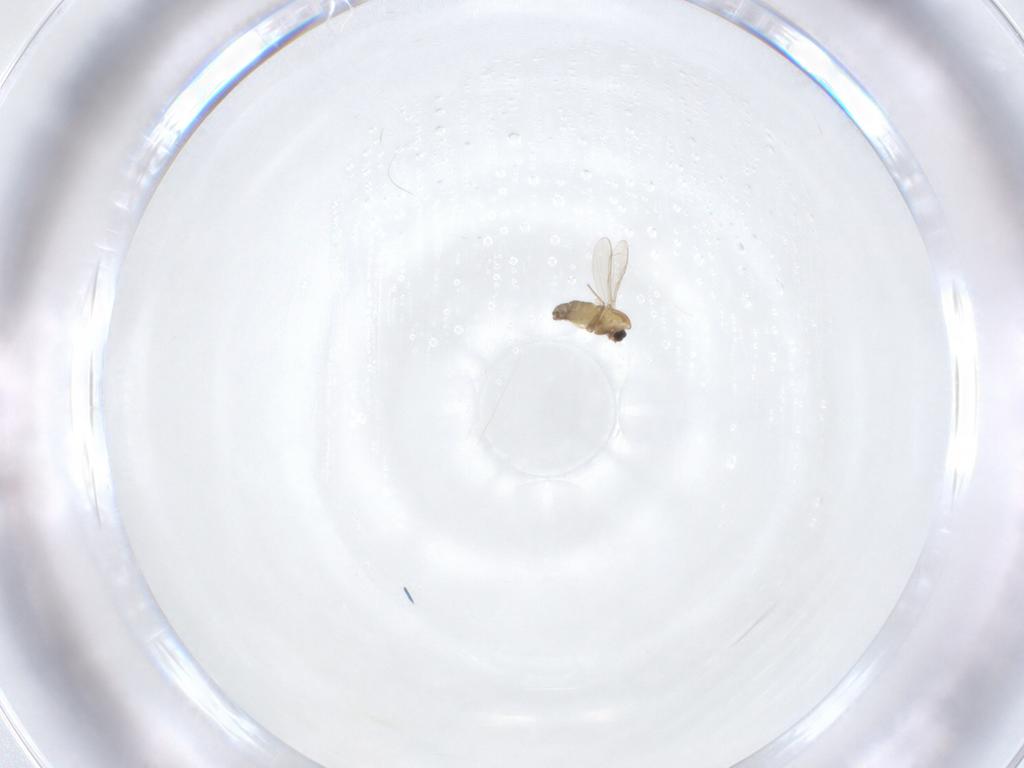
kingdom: Animalia
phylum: Arthropoda
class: Insecta
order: Diptera
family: Chironomidae
